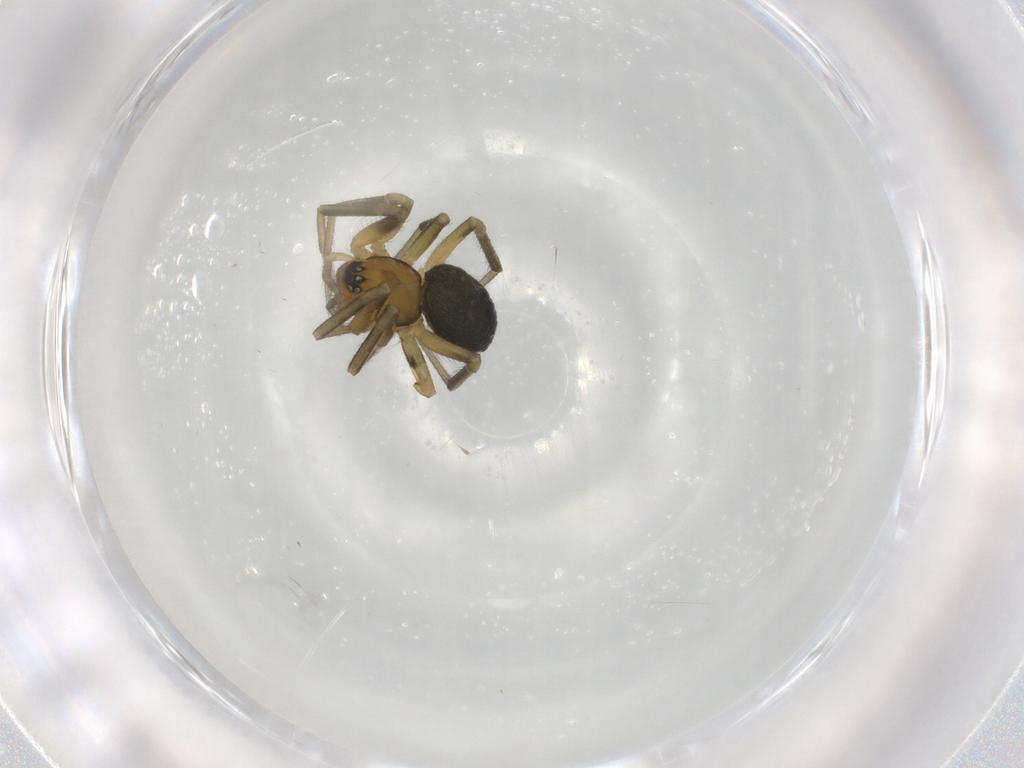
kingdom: Animalia
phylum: Arthropoda
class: Arachnida
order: Araneae
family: Linyphiidae
